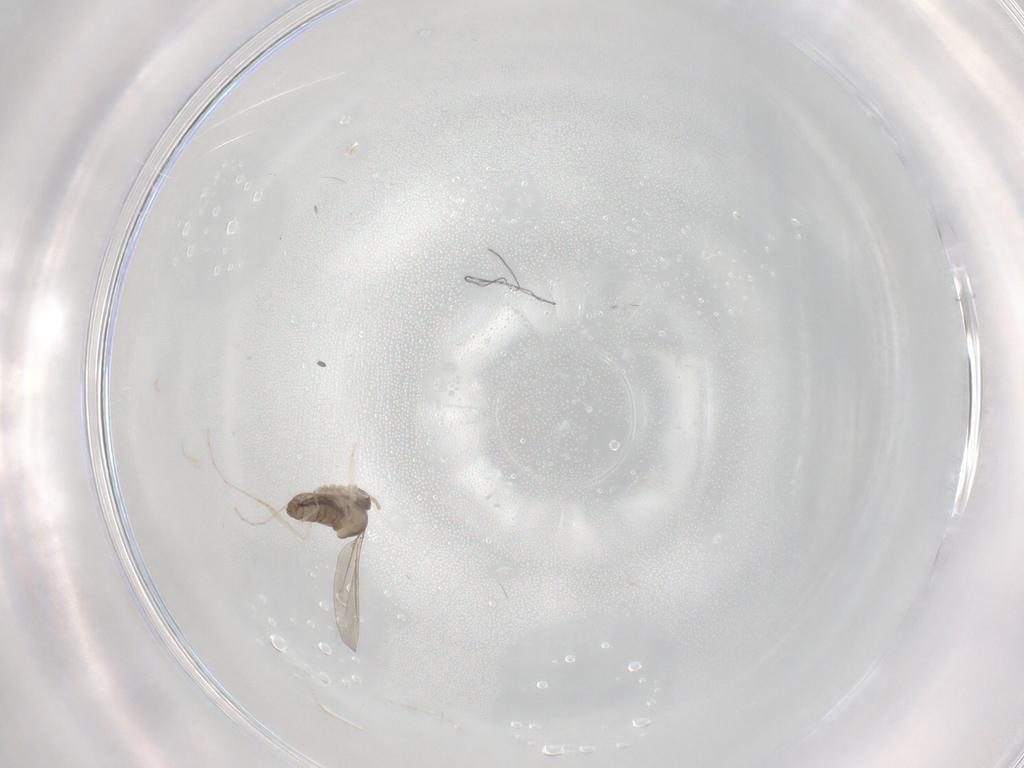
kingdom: Animalia
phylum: Arthropoda
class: Insecta
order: Diptera
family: Cecidomyiidae
